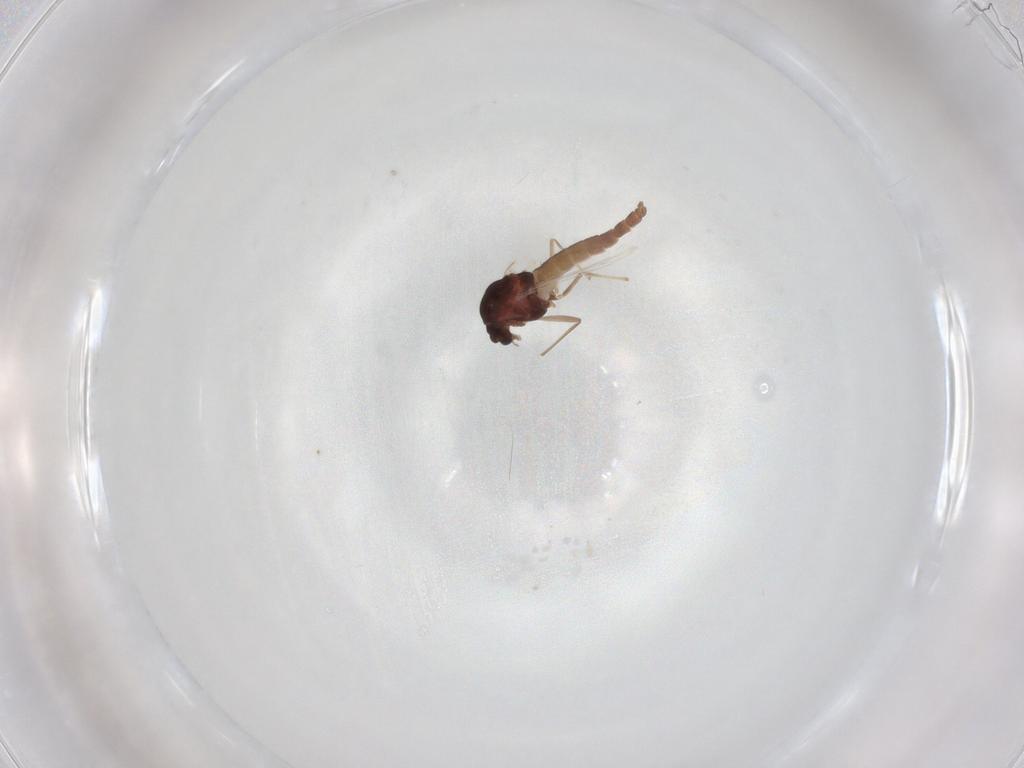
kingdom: Animalia
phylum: Arthropoda
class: Insecta
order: Diptera
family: Chironomidae
